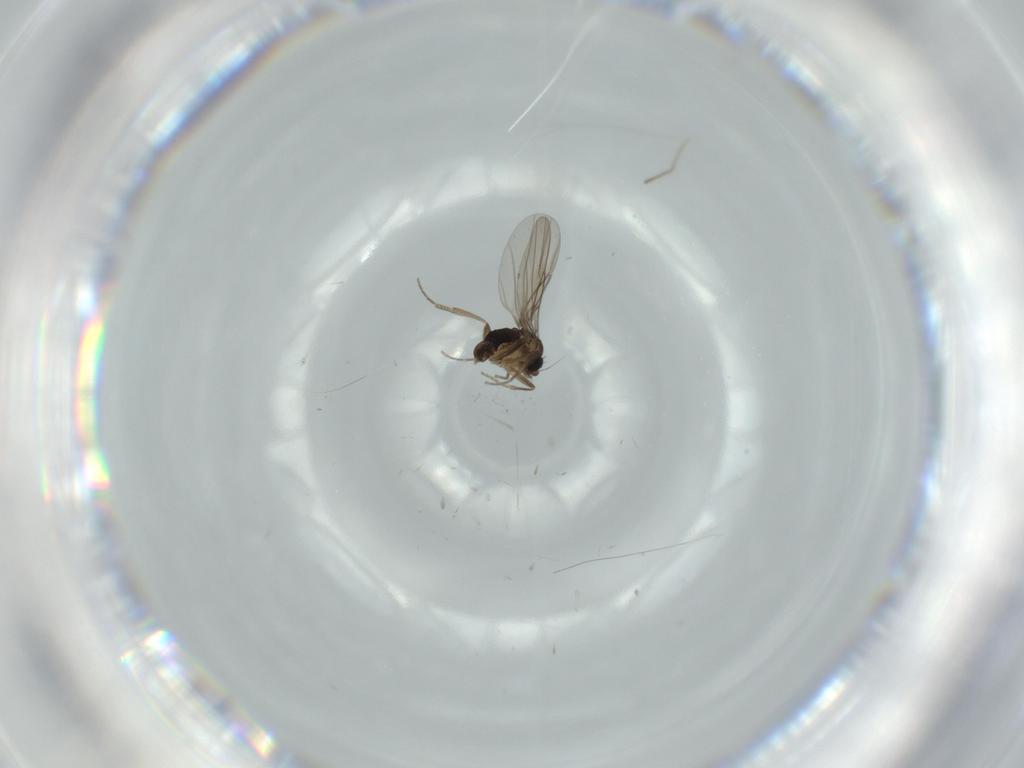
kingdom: Animalia
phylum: Arthropoda
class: Insecta
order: Diptera
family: Phoridae
